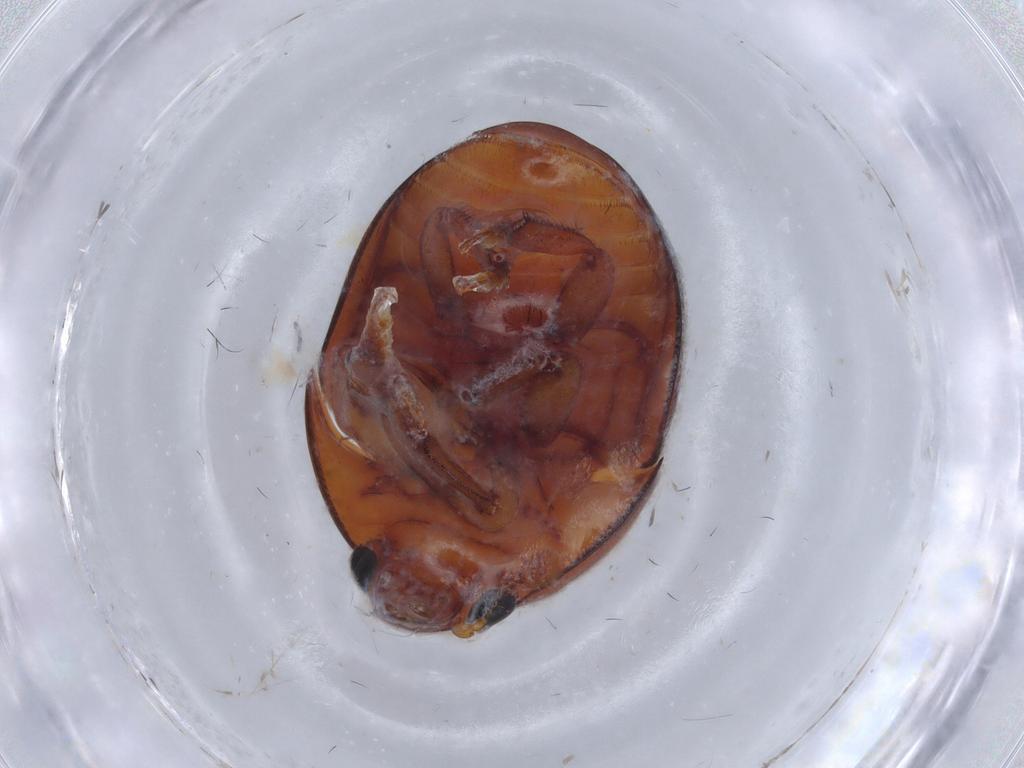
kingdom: Animalia
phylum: Arthropoda
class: Insecta
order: Coleoptera
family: Nitidulidae
